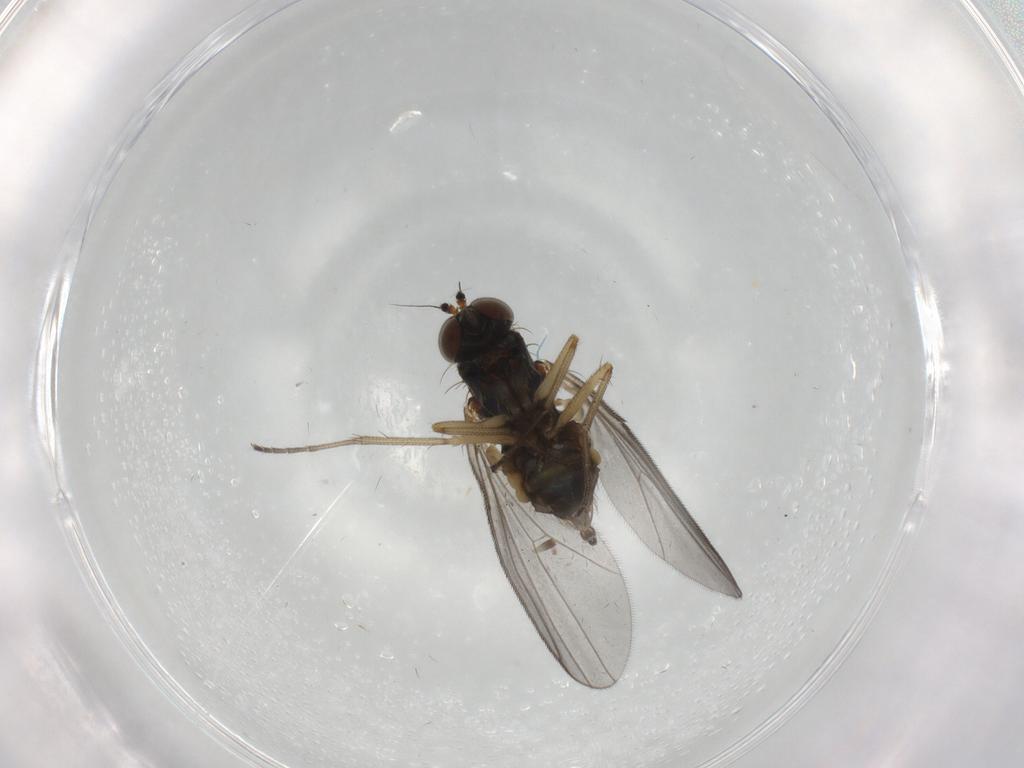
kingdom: Animalia
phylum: Arthropoda
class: Insecta
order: Diptera
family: Dolichopodidae
